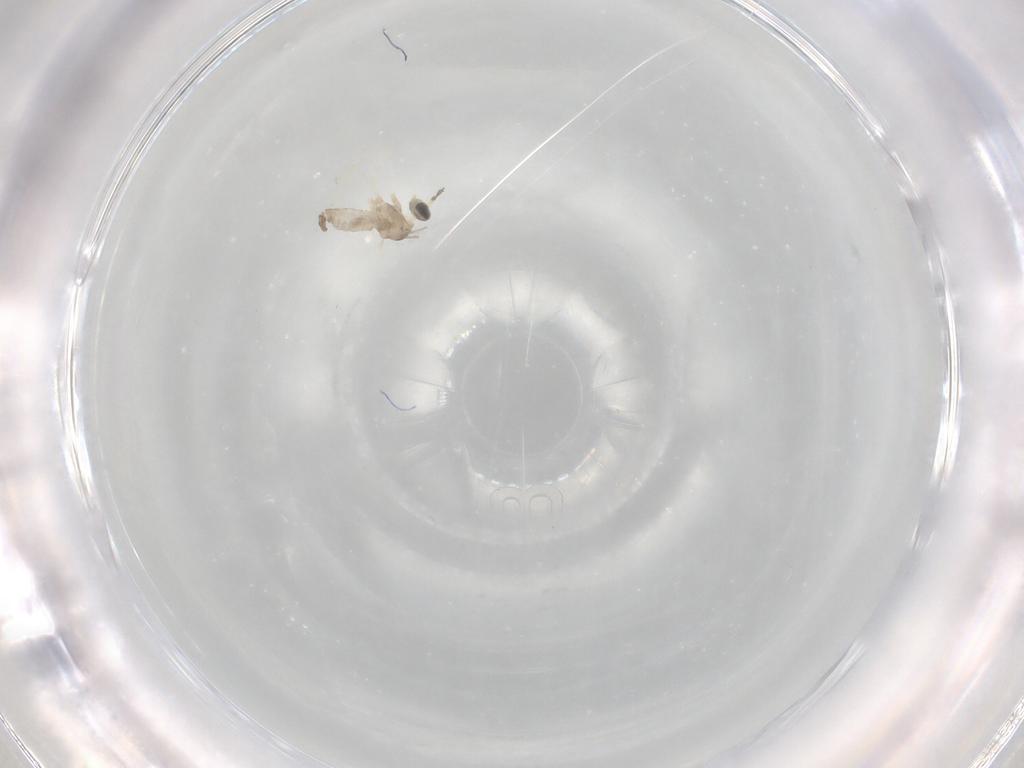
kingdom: Animalia
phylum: Arthropoda
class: Insecta
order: Diptera
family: Cecidomyiidae
